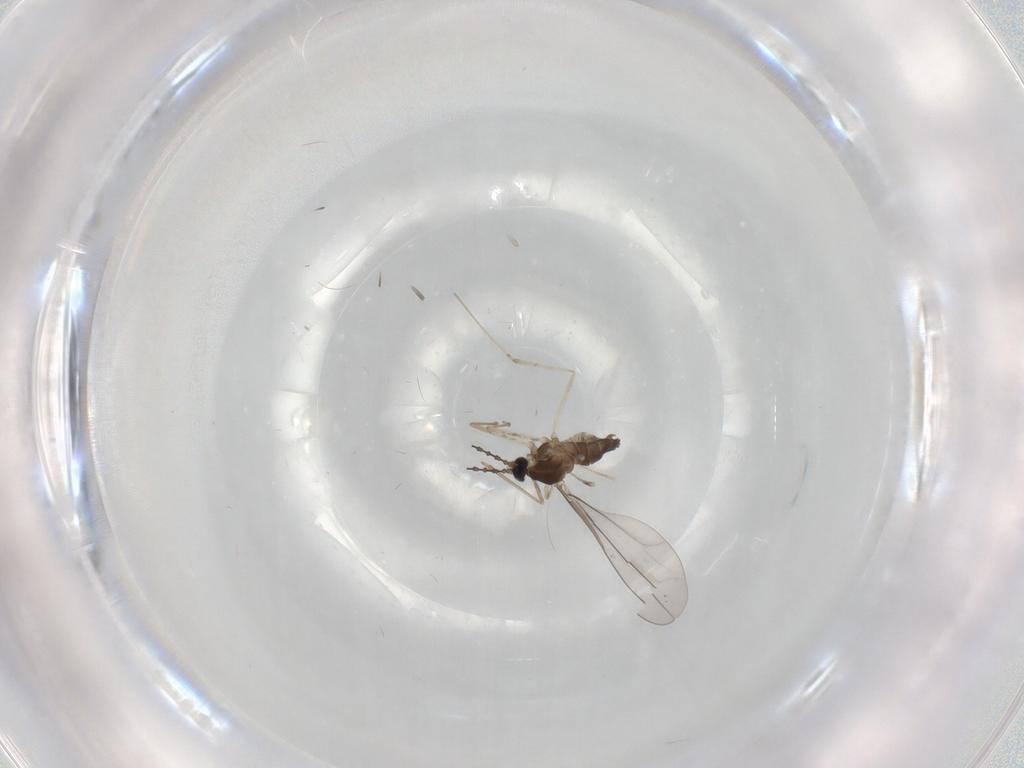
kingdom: Animalia
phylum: Arthropoda
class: Insecta
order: Diptera
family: Cecidomyiidae
